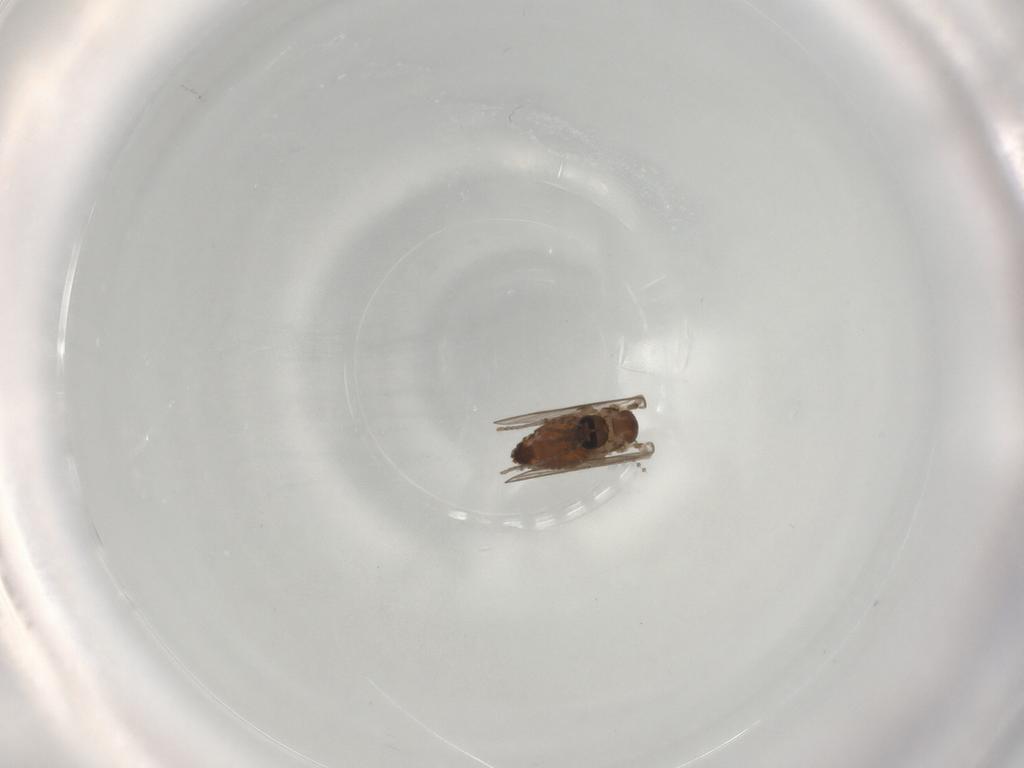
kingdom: Animalia
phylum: Arthropoda
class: Insecta
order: Diptera
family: Psychodidae
